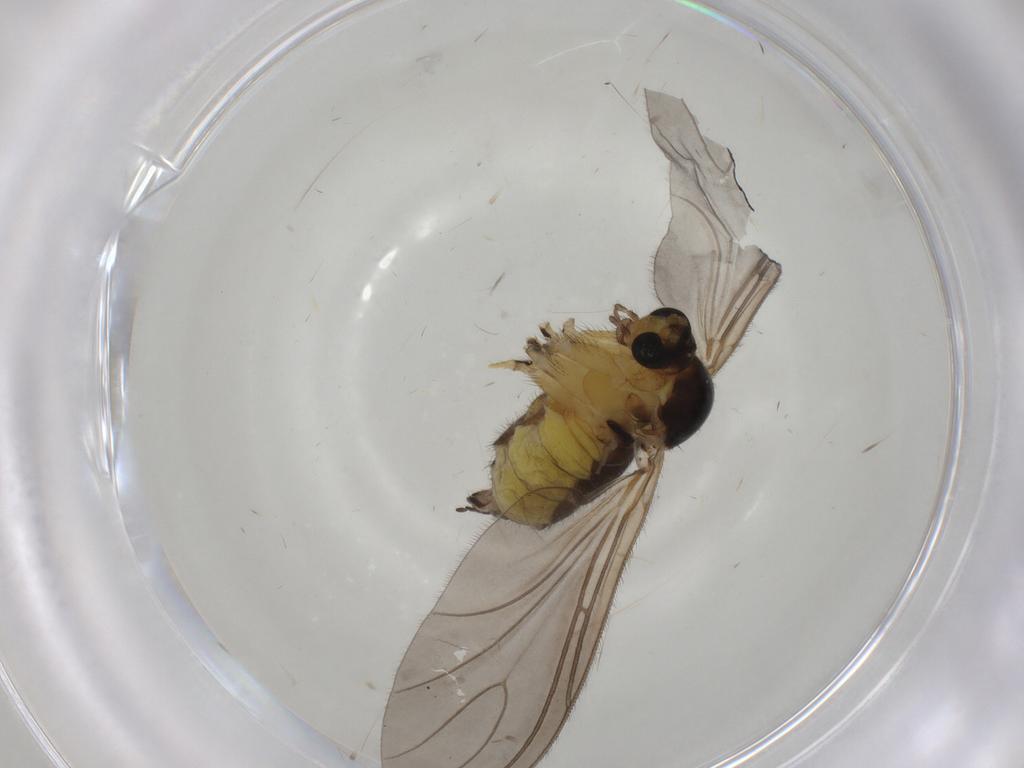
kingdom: Animalia
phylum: Arthropoda
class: Insecta
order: Diptera
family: Sciaridae
